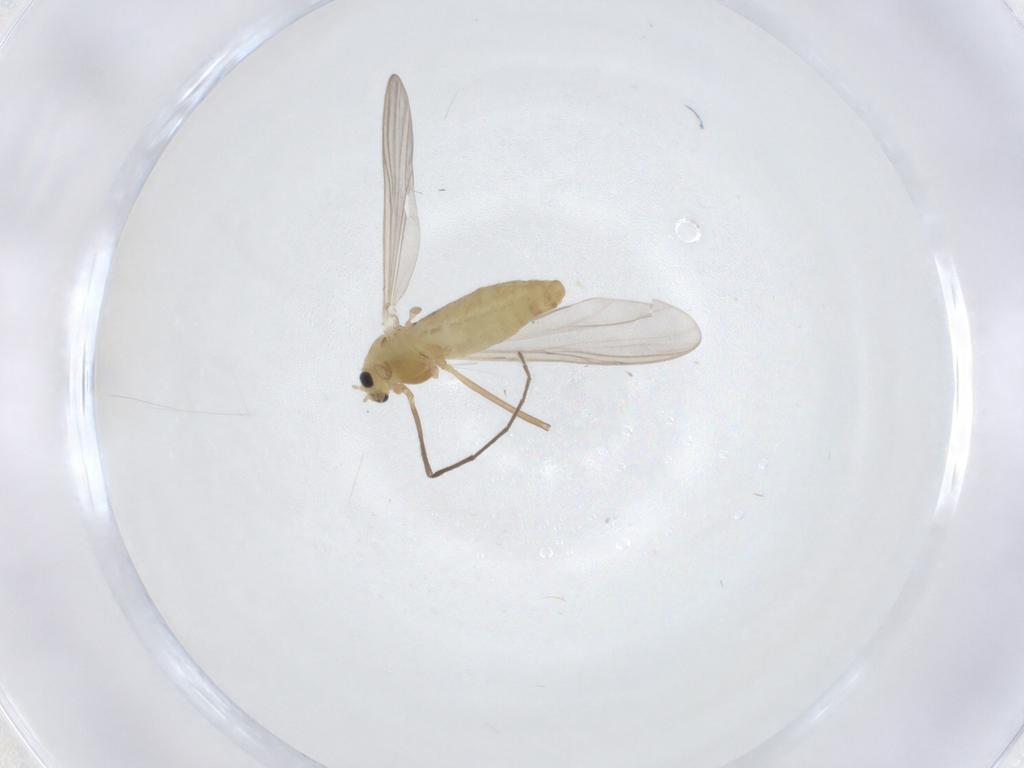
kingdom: Animalia
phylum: Arthropoda
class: Insecta
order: Diptera
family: Chironomidae
